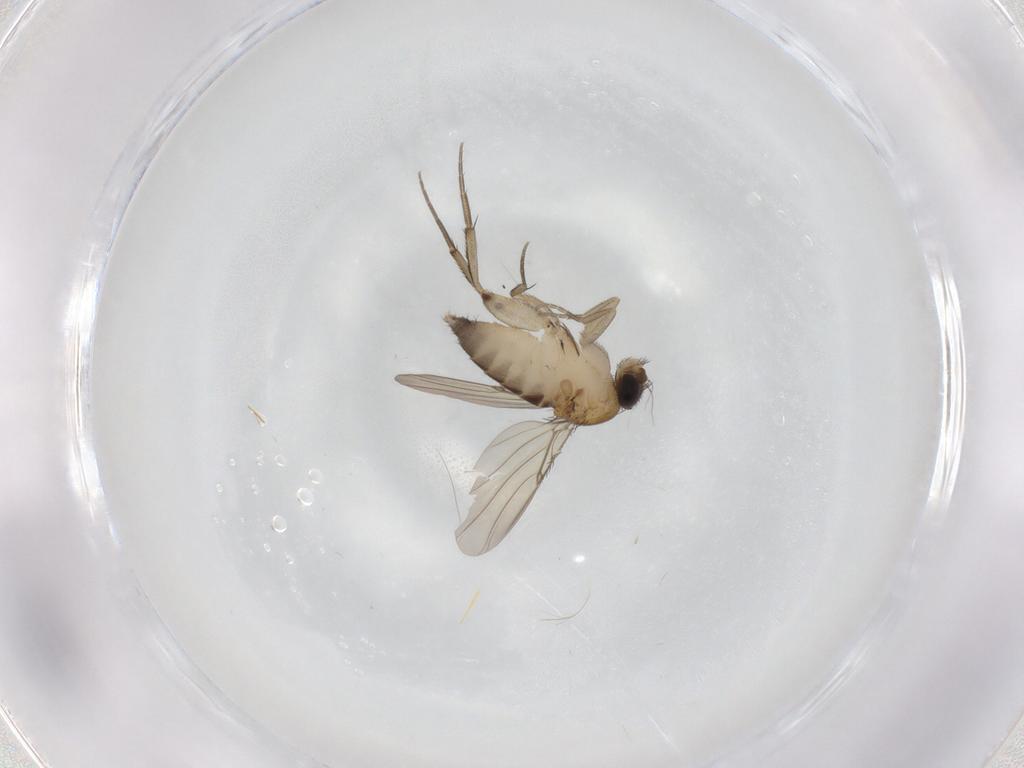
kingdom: Animalia
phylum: Arthropoda
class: Insecta
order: Diptera
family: Phoridae
